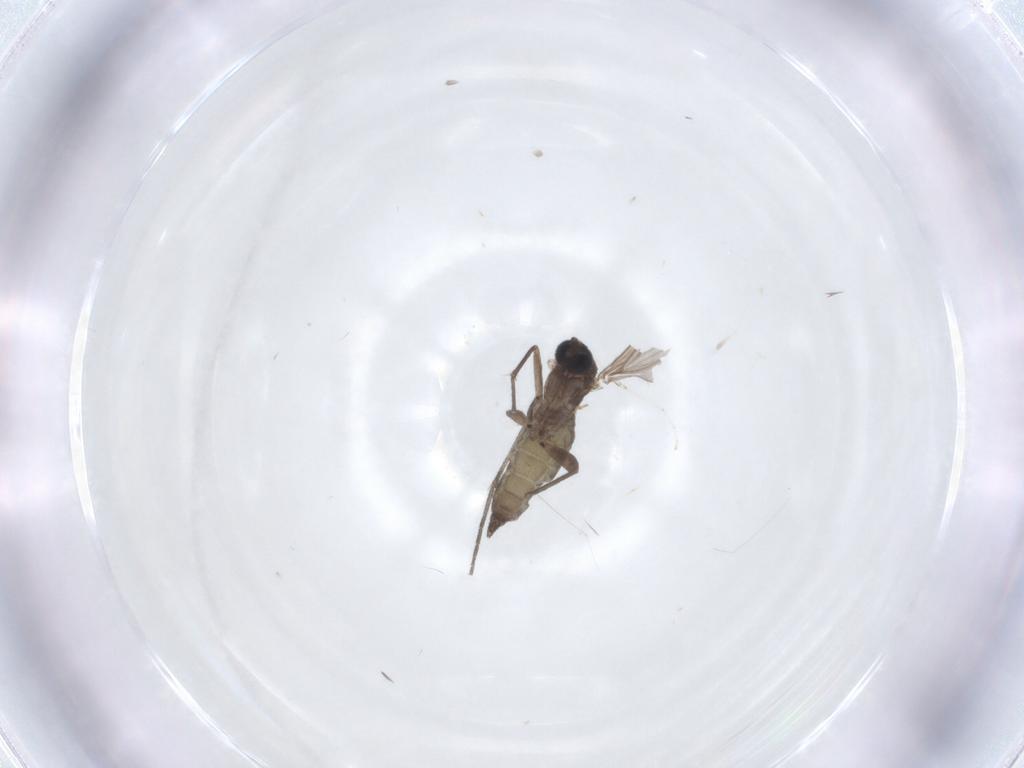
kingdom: Animalia
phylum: Arthropoda
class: Insecta
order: Diptera
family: Sciaridae
